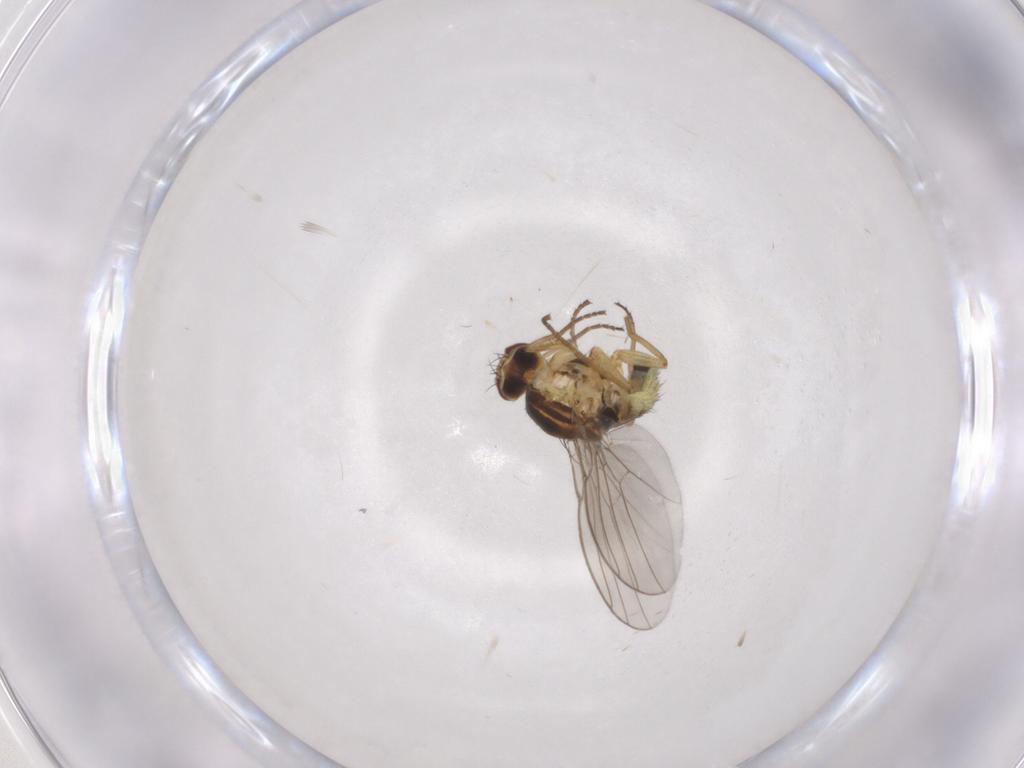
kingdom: Animalia
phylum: Arthropoda
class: Insecta
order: Diptera
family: Agromyzidae
